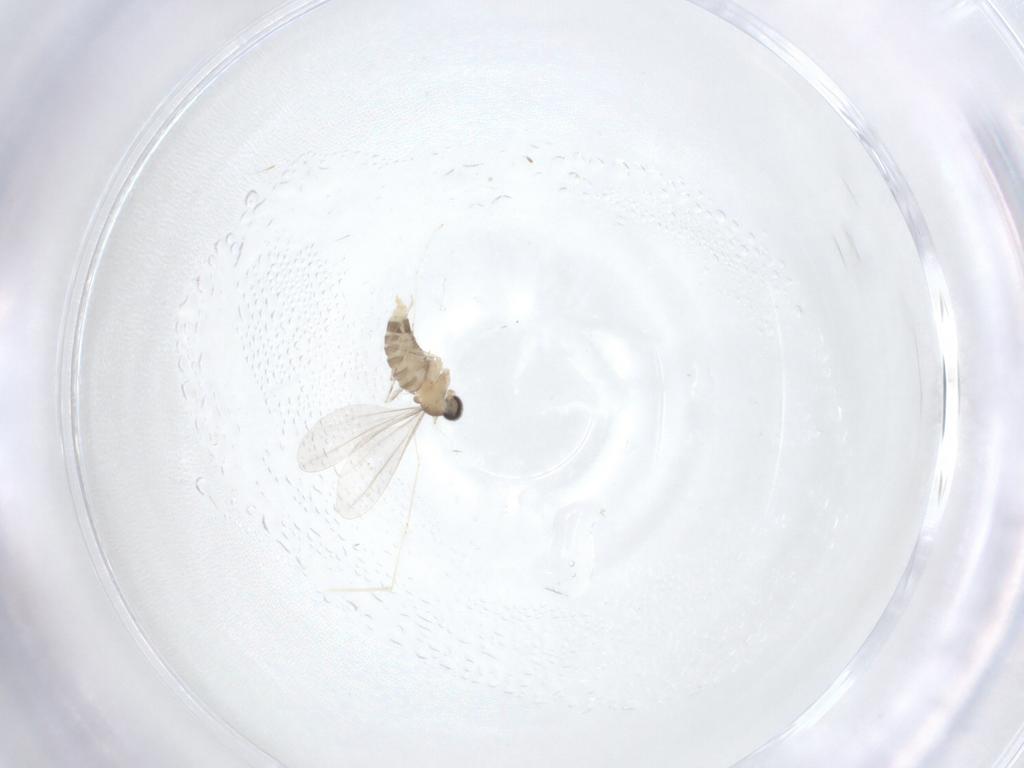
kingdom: Animalia
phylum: Arthropoda
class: Insecta
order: Diptera
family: Cecidomyiidae
